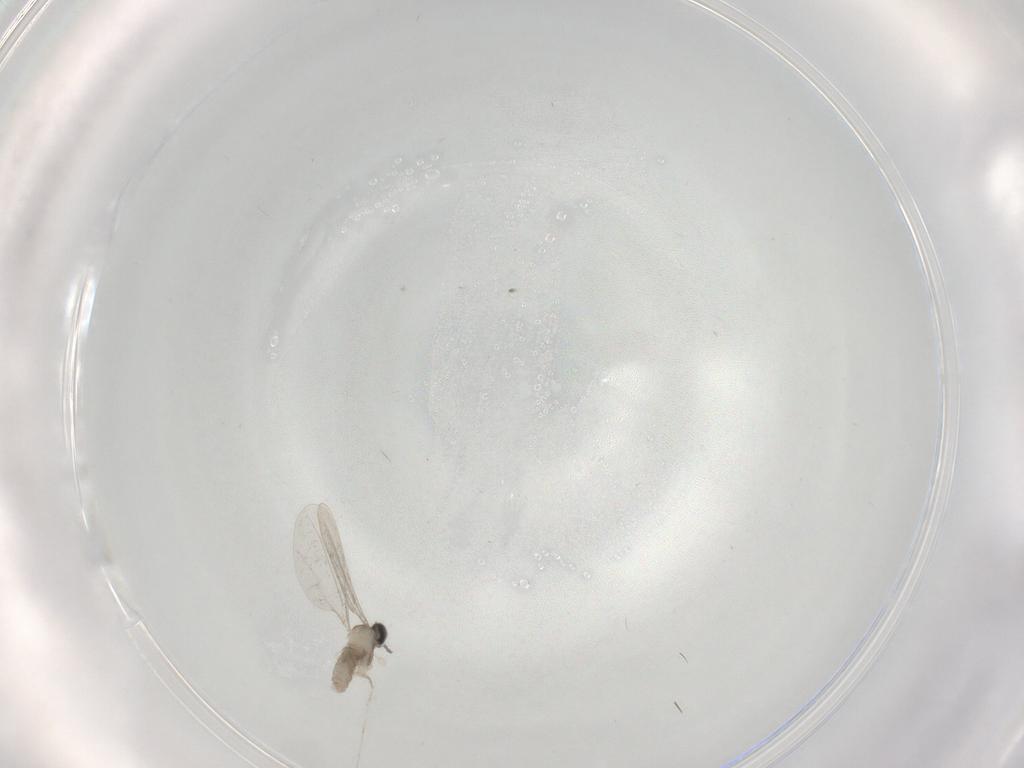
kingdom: Animalia
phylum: Arthropoda
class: Insecta
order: Diptera
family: Cecidomyiidae
